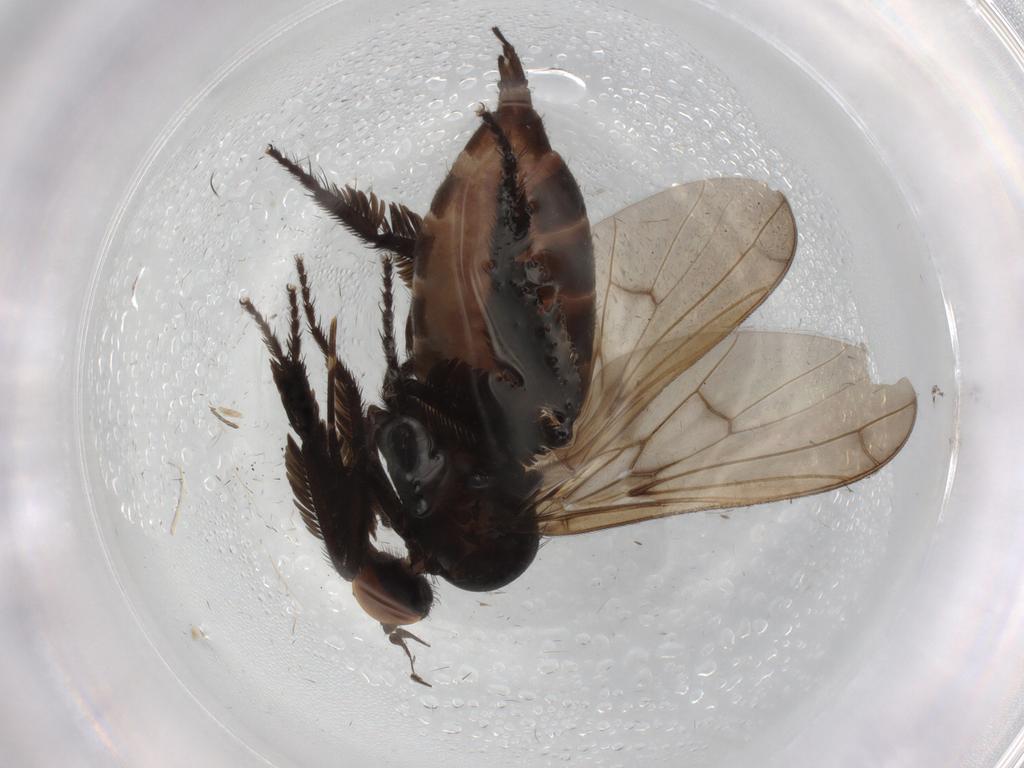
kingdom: Animalia
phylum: Arthropoda
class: Insecta
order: Diptera
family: Empididae
